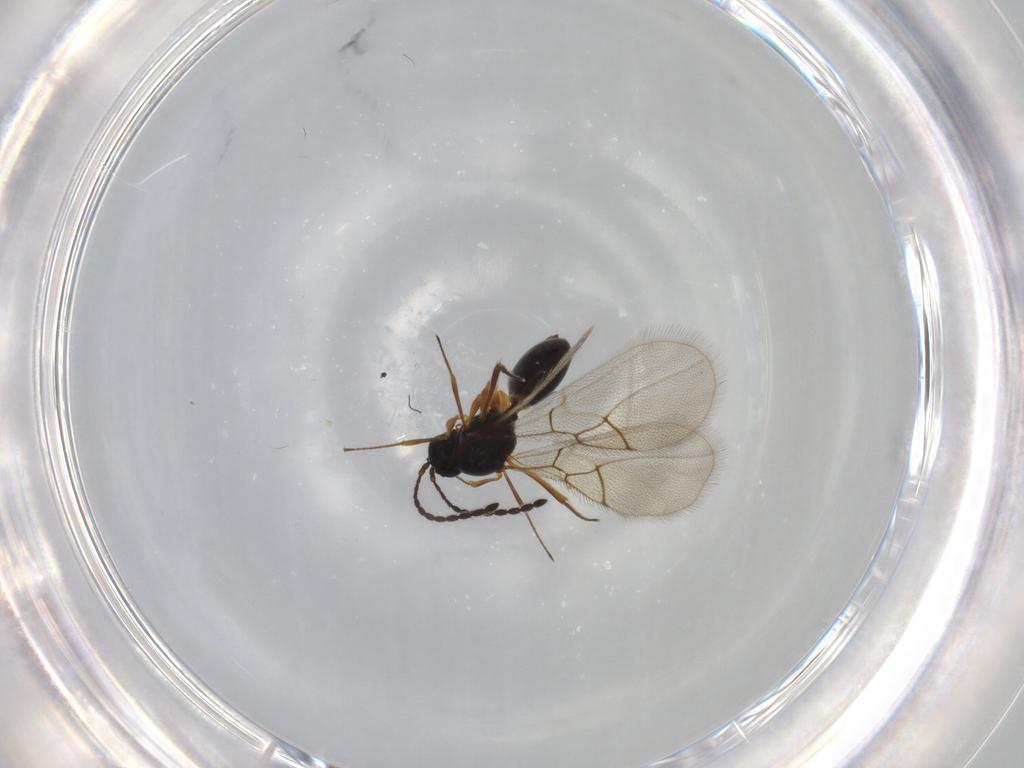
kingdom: Animalia
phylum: Arthropoda
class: Insecta
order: Hymenoptera
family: Figitidae
